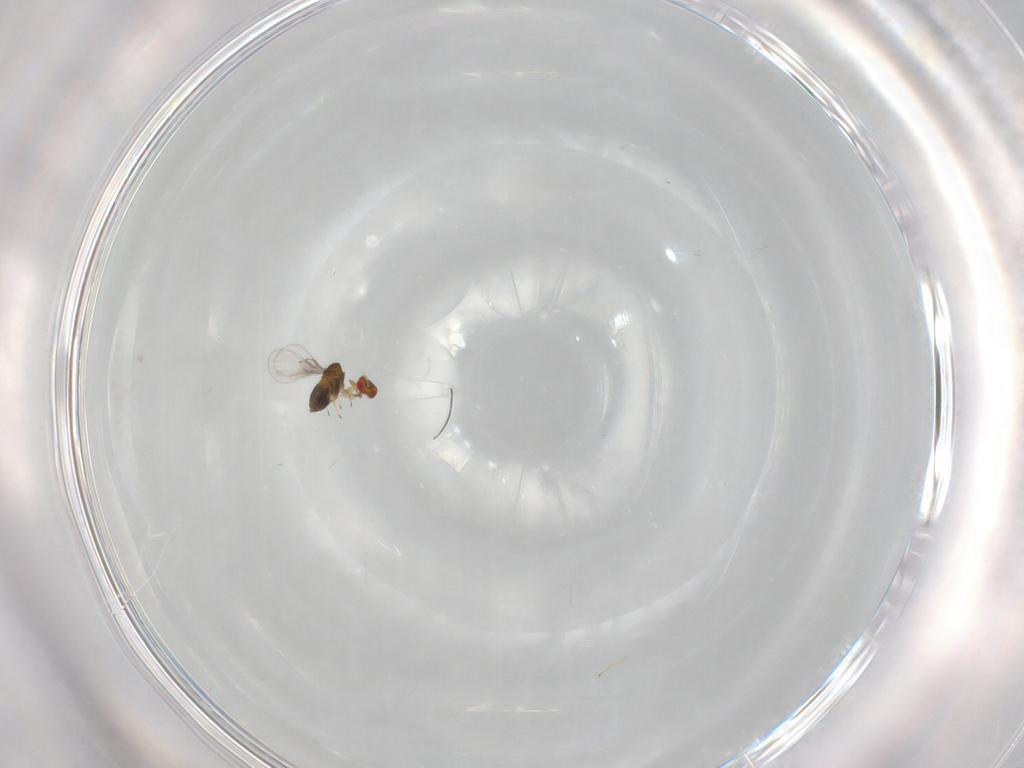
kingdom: Animalia
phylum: Arthropoda
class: Insecta
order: Hymenoptera
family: Trichogrammatidae
